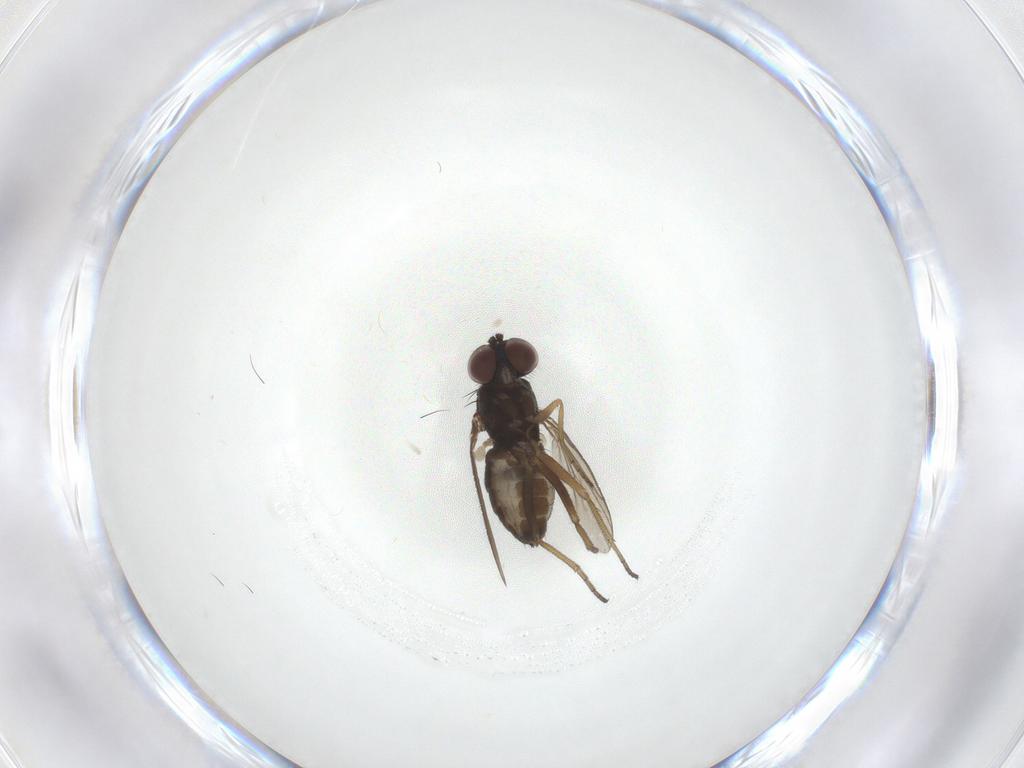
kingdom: Animalia
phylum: Arthropoda
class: Insecta
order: Diptera
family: Dolichopodidae
